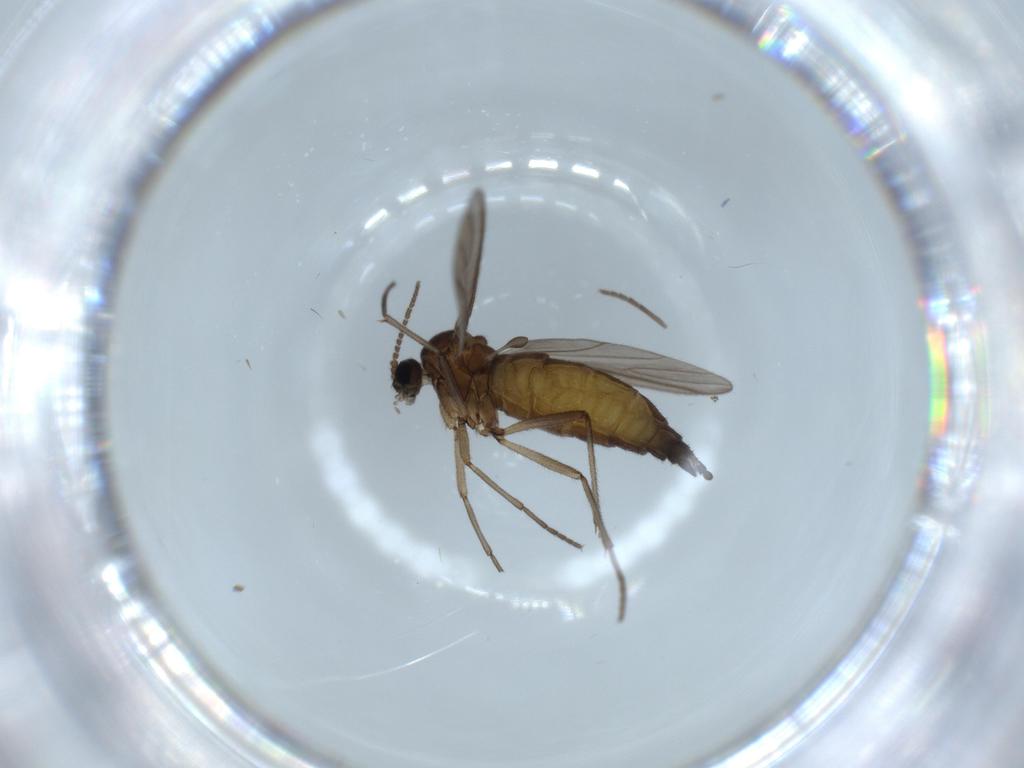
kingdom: Animalia
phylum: Arthropoda
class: Insecta
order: Diptera
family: Sciaridae
